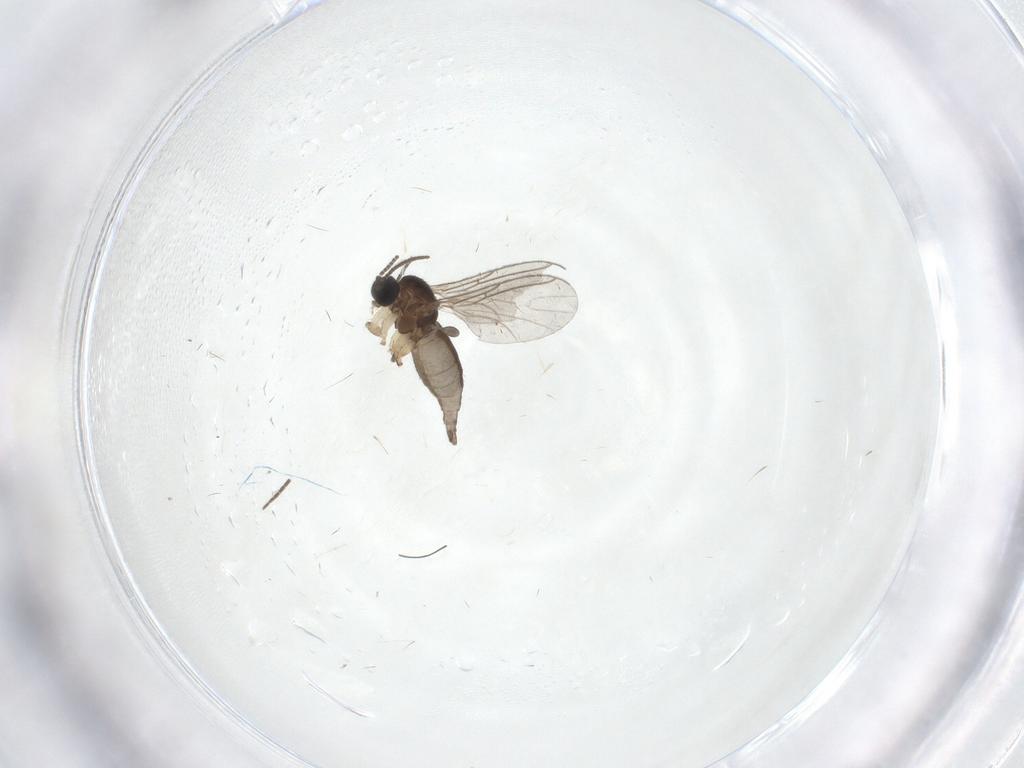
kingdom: Animalia
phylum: Arthropoda
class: Insecta
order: Diptera
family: Sciaridae
